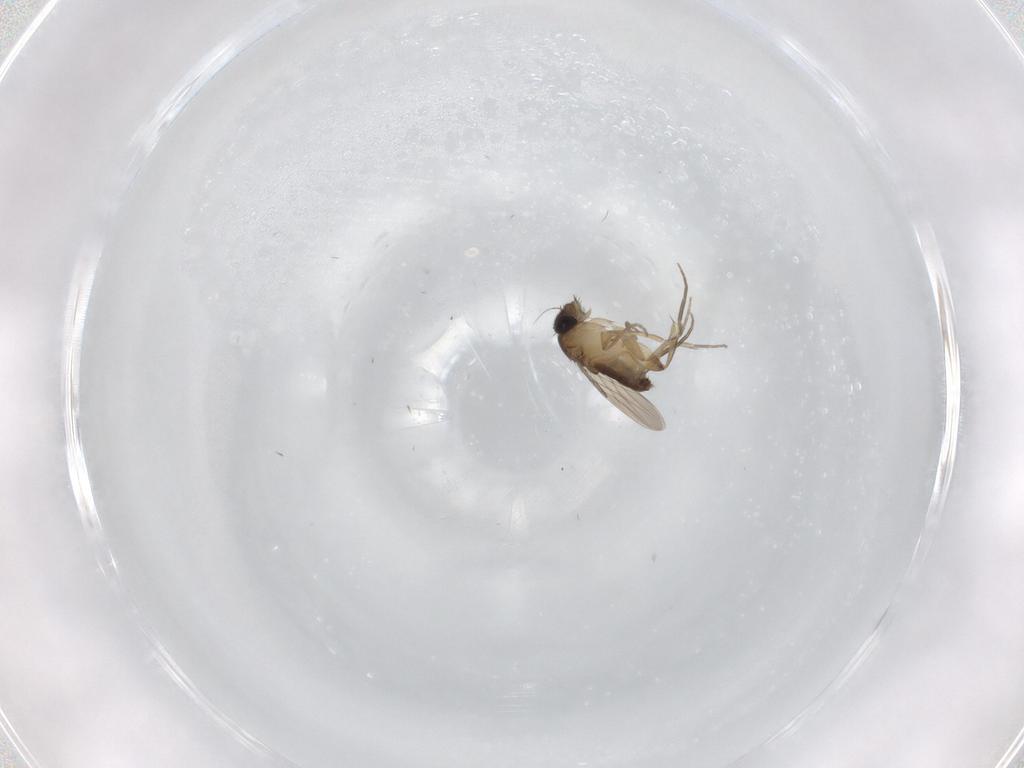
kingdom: Animalia
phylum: Arthropoda
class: Insecta
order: Diptera
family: Phoridae
